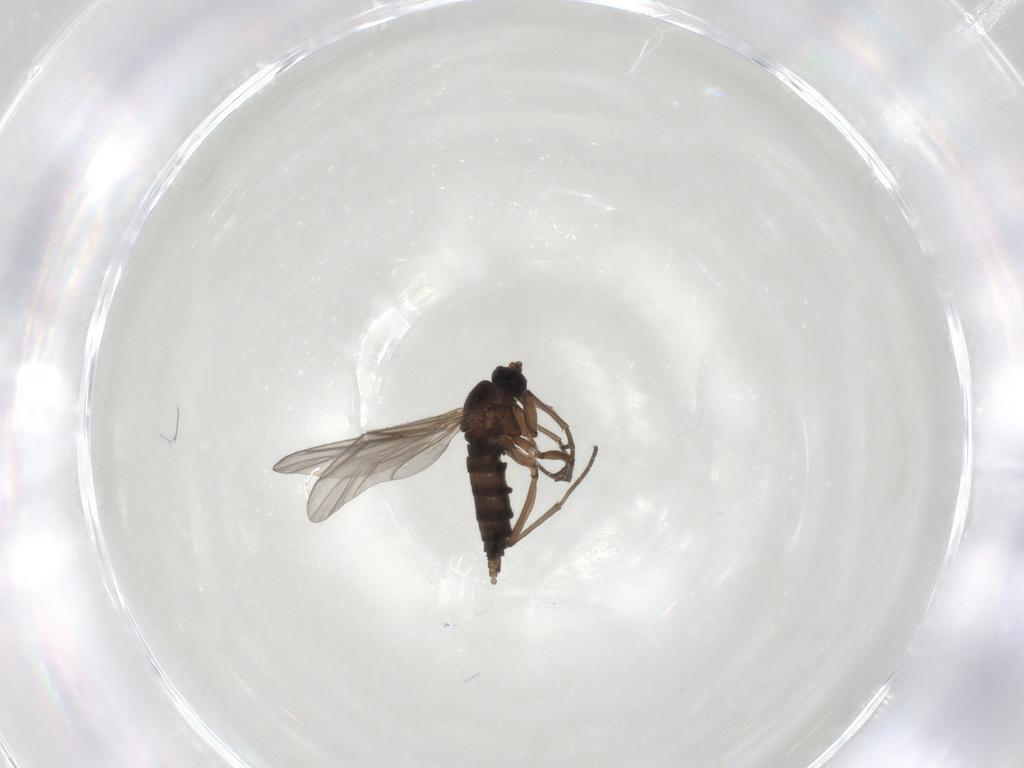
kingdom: Animalia
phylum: Arthropoda
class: Insecta
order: Diptera
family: Sciaridae
